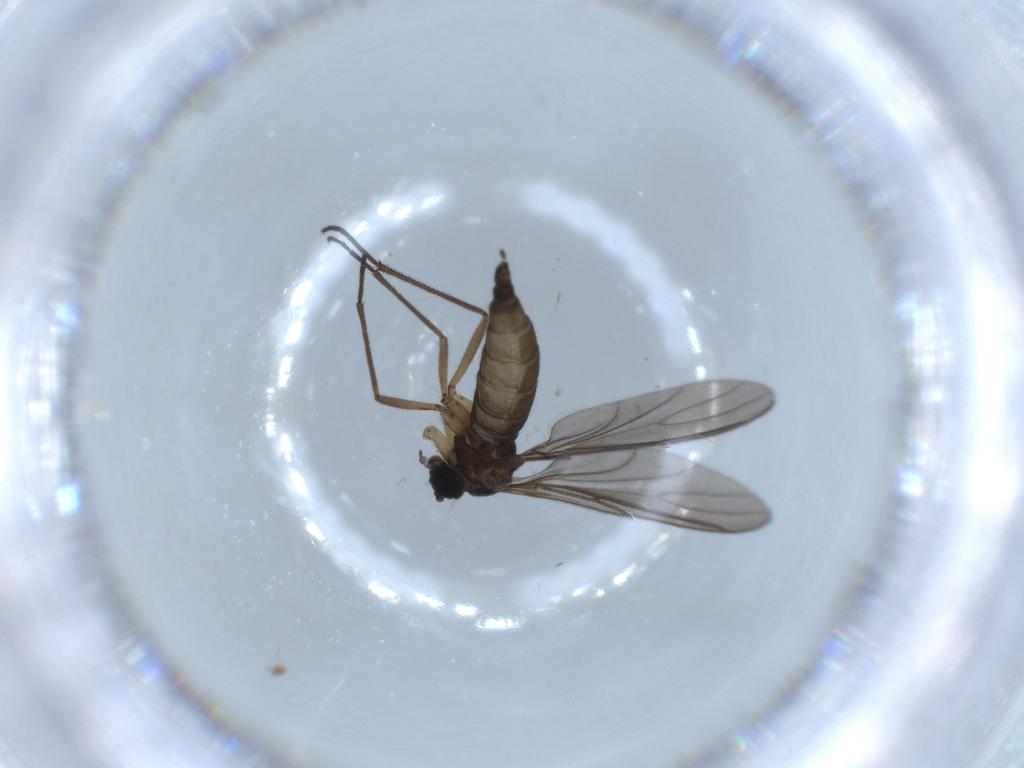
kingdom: Animalia
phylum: Arthropoda
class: Insecta
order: Diptera
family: Sciaridae
